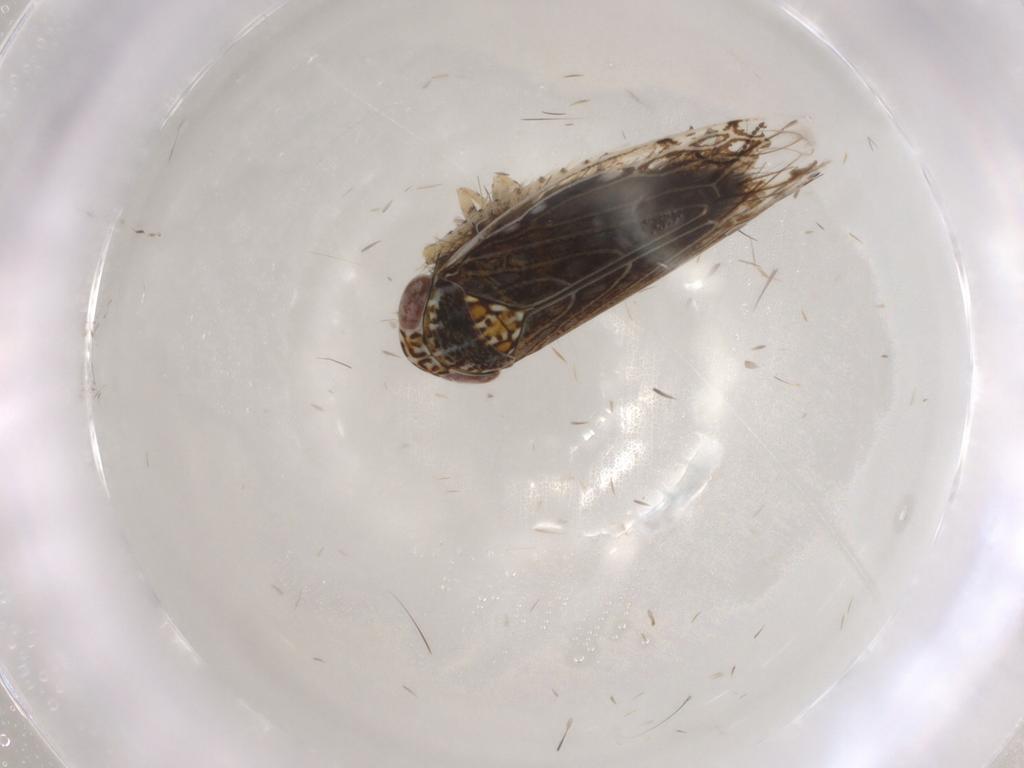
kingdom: Animalia
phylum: Arthropoda
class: Insecta
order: Hemiptera
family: Cicadellidae
